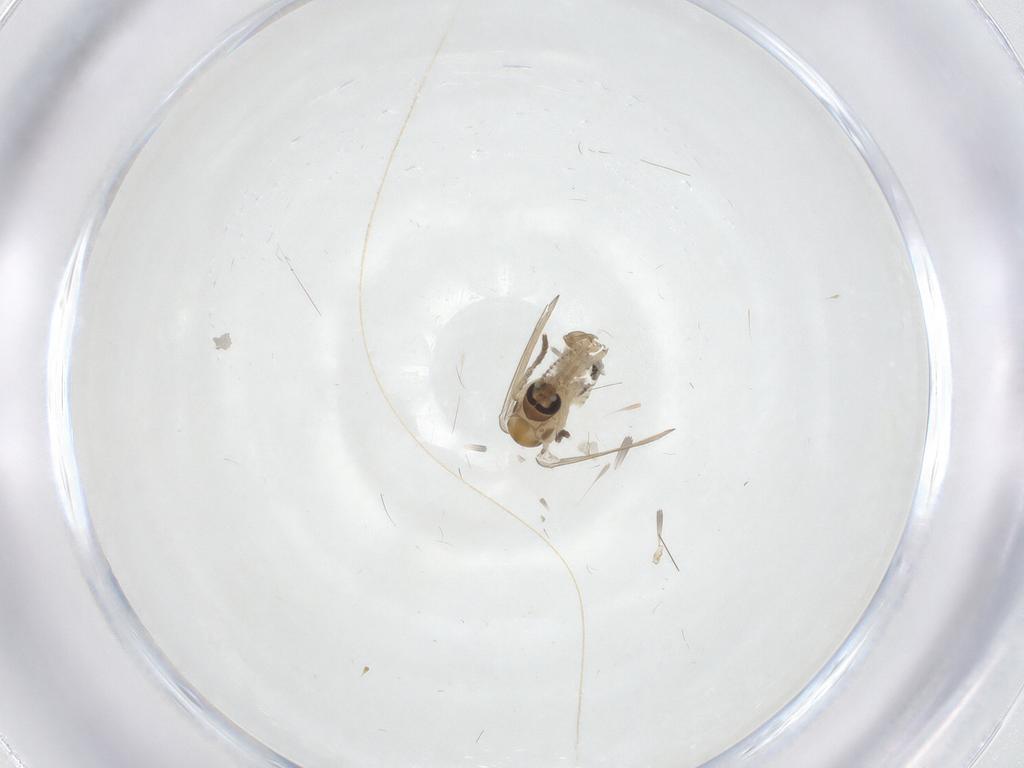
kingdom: Animalia
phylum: Arthropoda
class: Insecta
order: Diptera
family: Psychodidae
